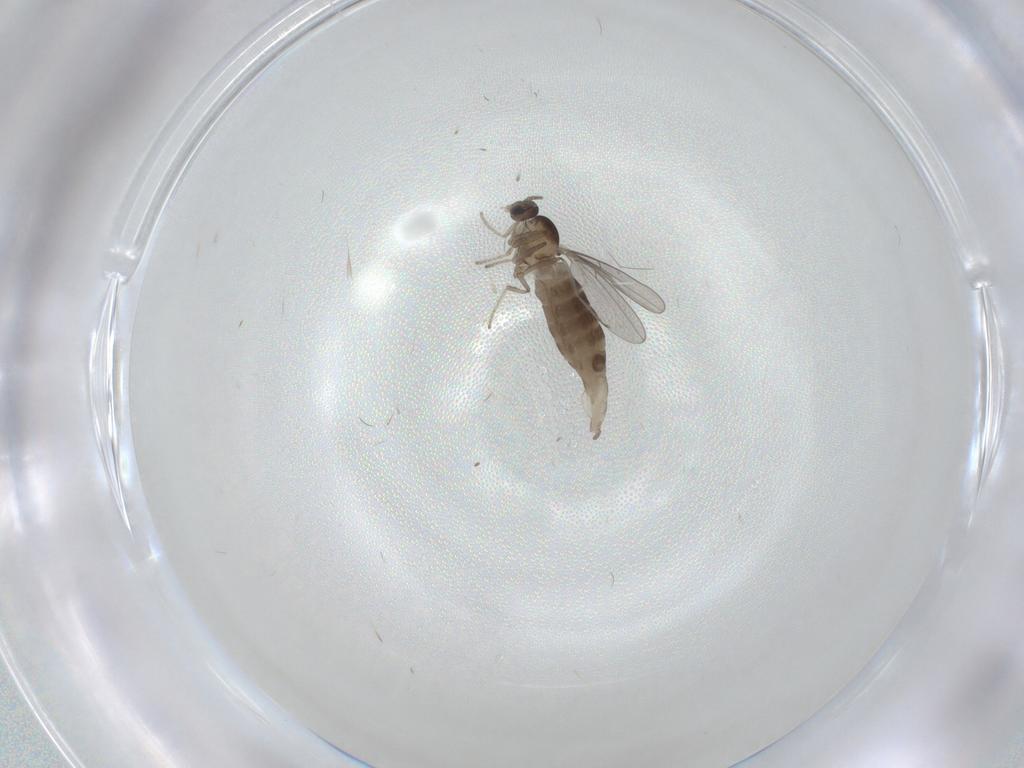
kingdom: Animalia
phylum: Arthropoda
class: Insecta
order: Diptera
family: Cecidomyiidae
